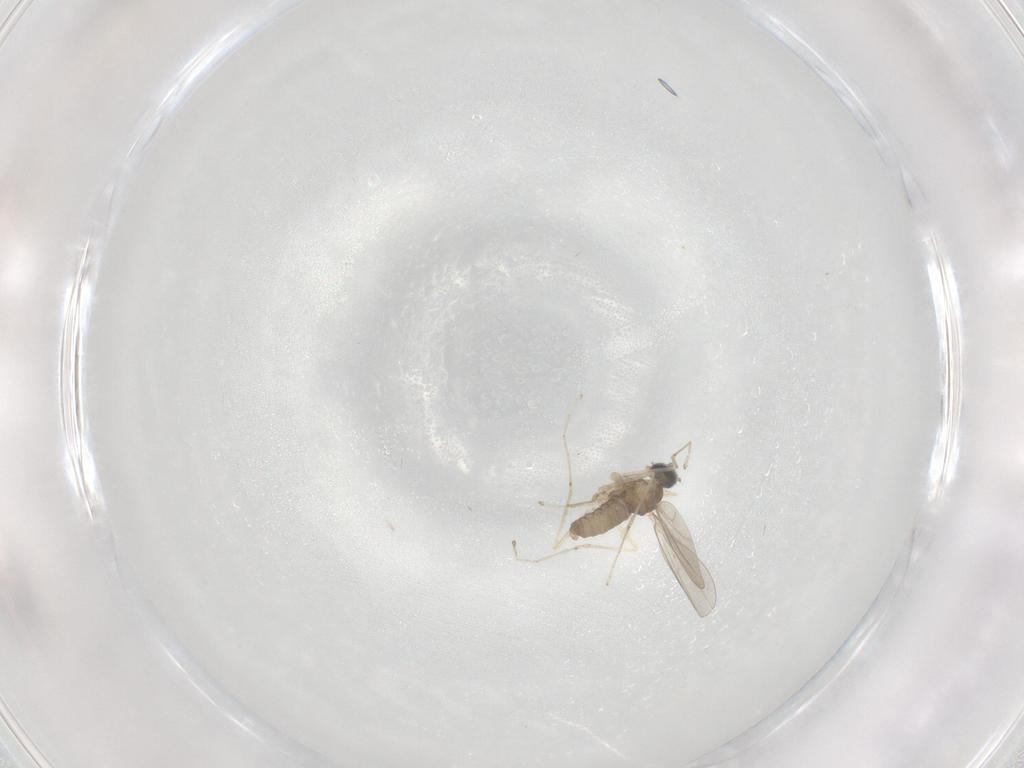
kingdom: Animalia
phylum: Arthropoda
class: Insecta
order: Diptera
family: Cecidomyiidae
